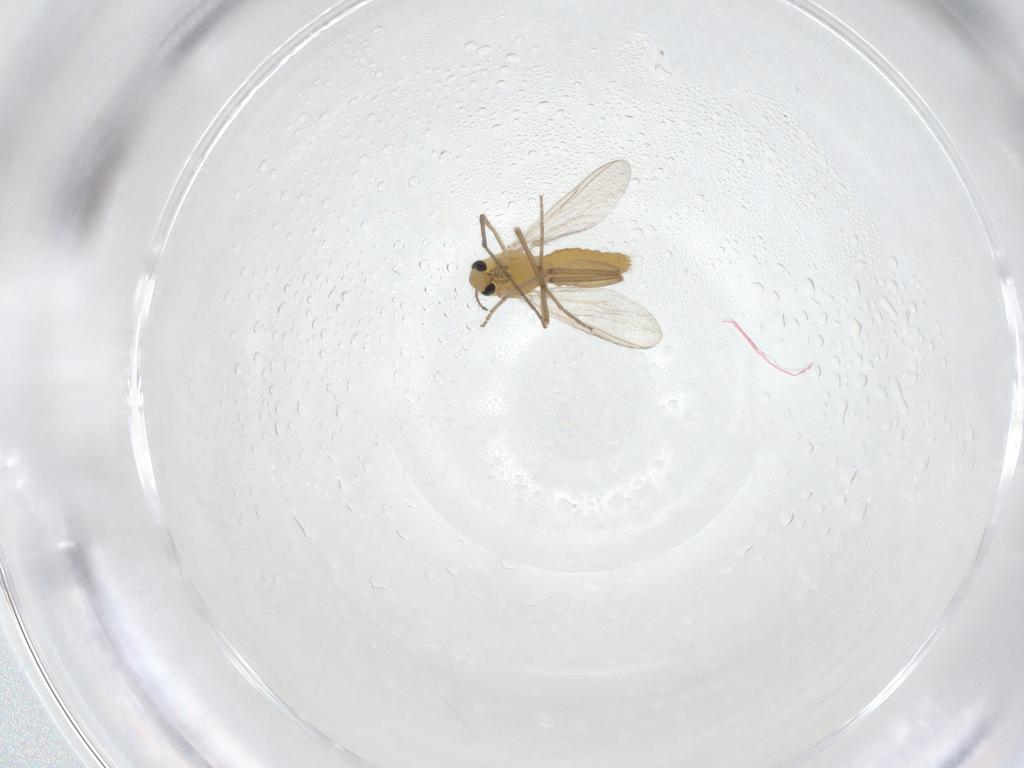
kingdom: Animalia
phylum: Arthropoda
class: Insecta
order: Diptera
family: Chironomidae
